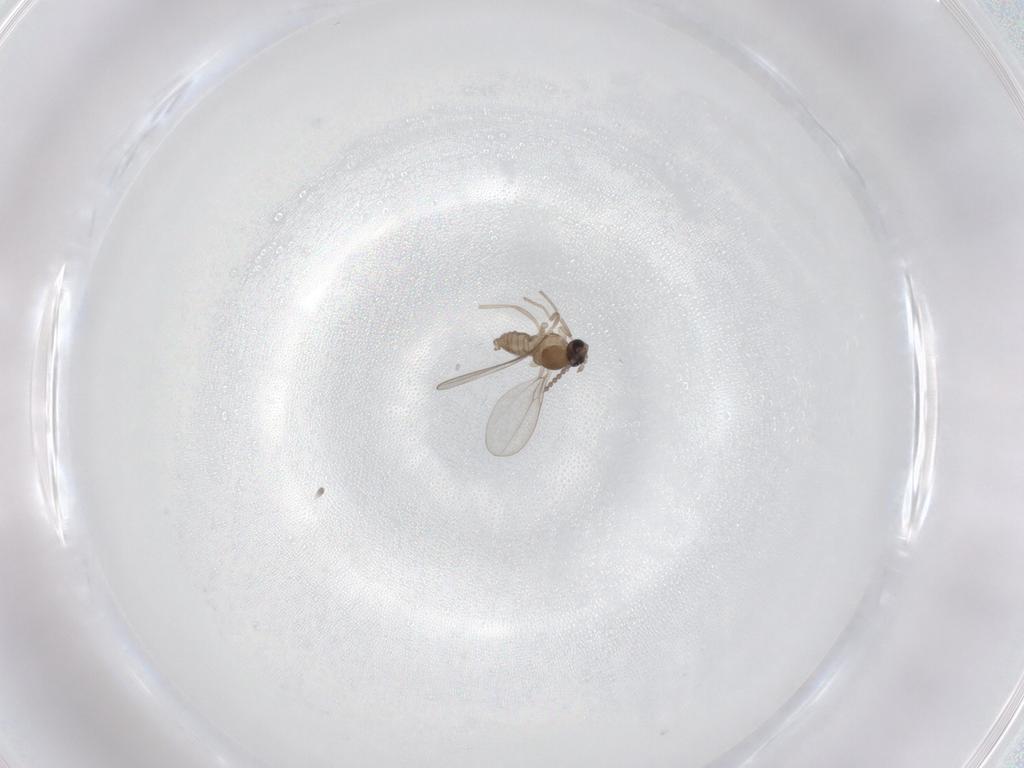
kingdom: Animalia
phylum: Arthropoda
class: Insecta
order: Diptera
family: Cecidomyiidae
